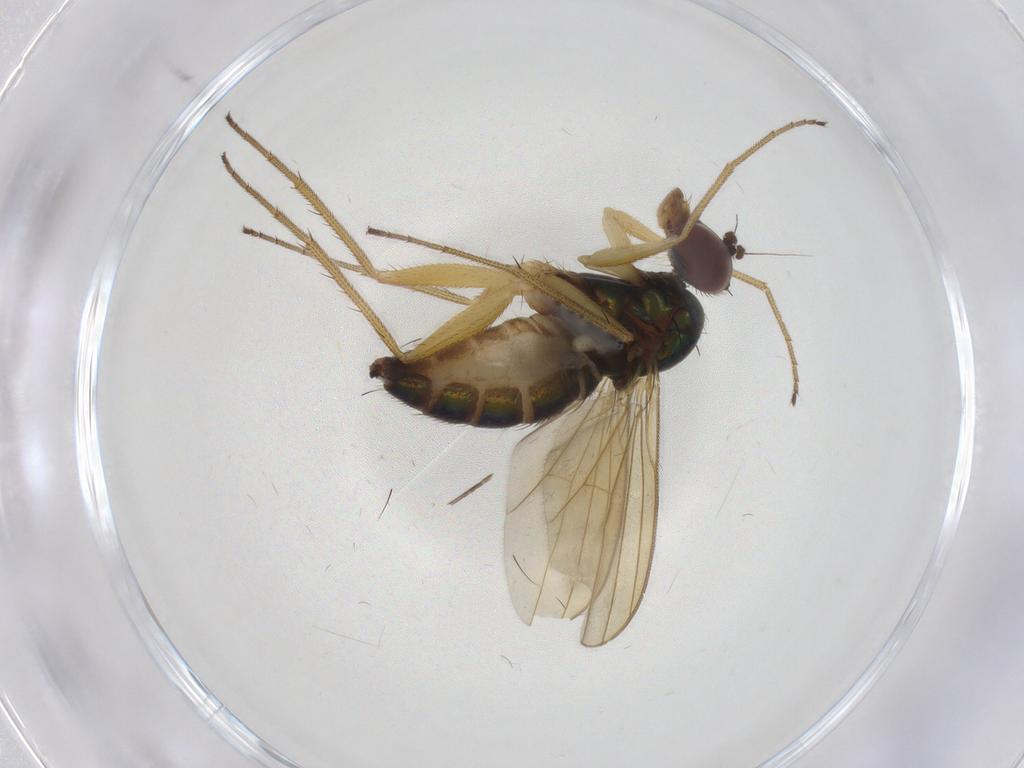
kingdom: Animalia
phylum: Arthropoda
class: Insecta
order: Diptera
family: Dolichopodidae
